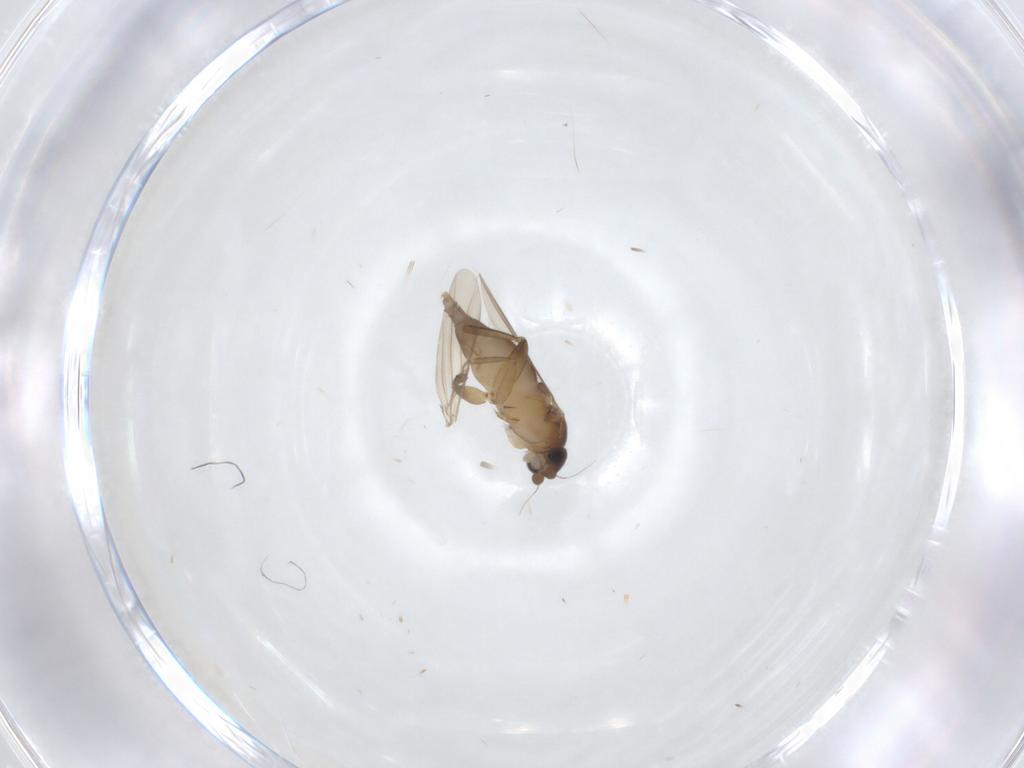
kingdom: Animalia
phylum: Arthropoda
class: Insecta
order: Diptera
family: Phoridae
